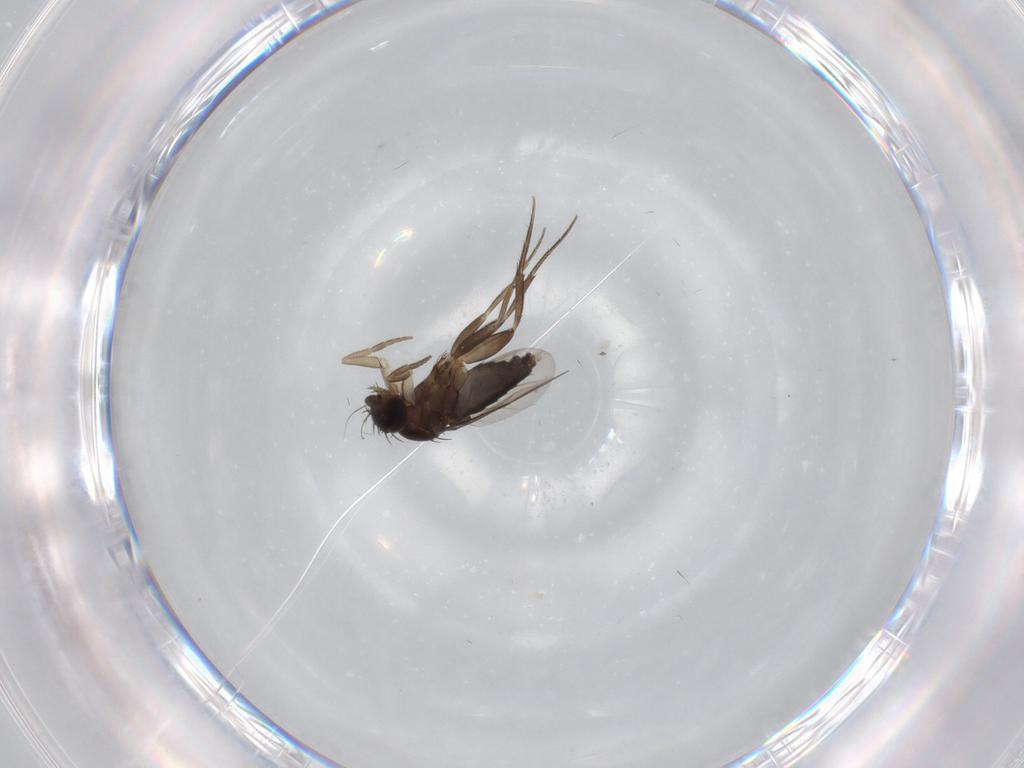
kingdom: Animalia
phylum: Arthropoda
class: Insecta
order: Diptera
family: Phoridae
